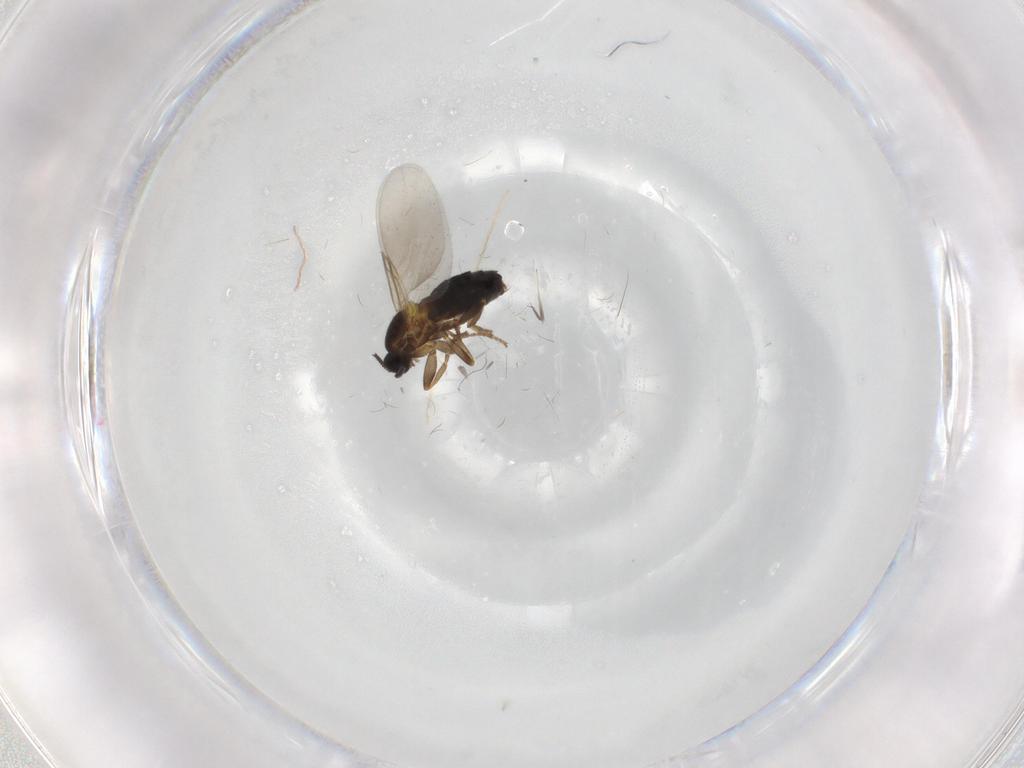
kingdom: Animalia
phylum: Arthropoda
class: Insecta
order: Diptera
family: Scatopsidae
